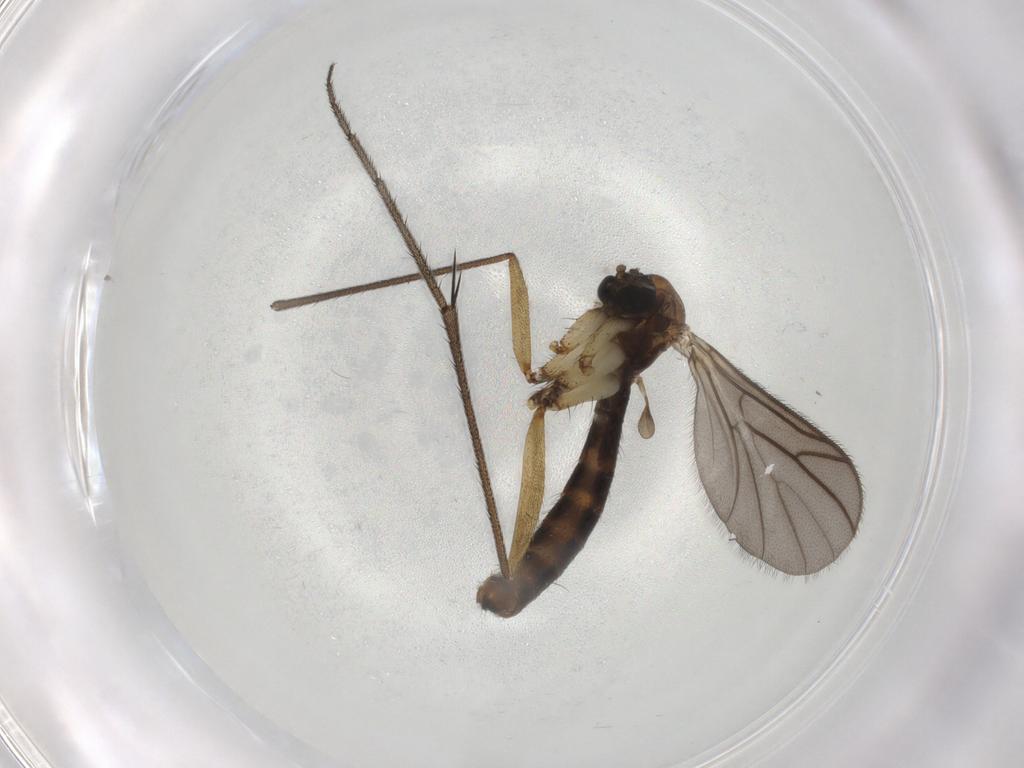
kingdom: Animalia
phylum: Arthropoda
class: Insecta
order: Diptera
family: Ditomyiidae
